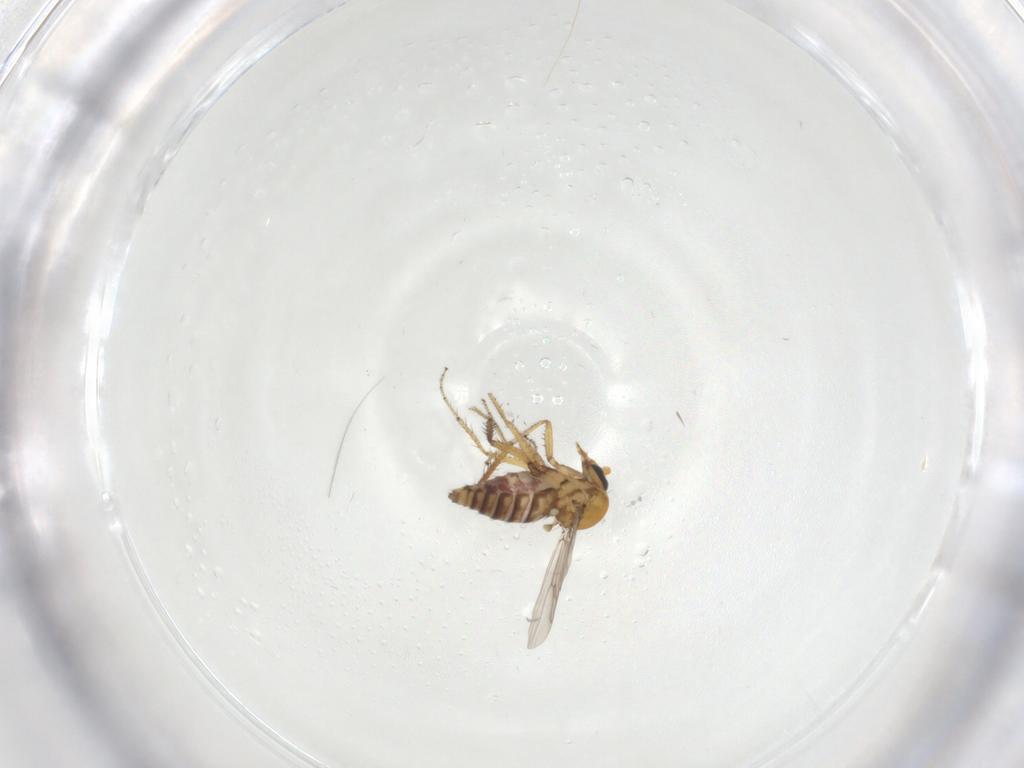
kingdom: Animalia
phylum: Arthropoda
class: Insecta
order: Diptera
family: Ceratopogonidae
